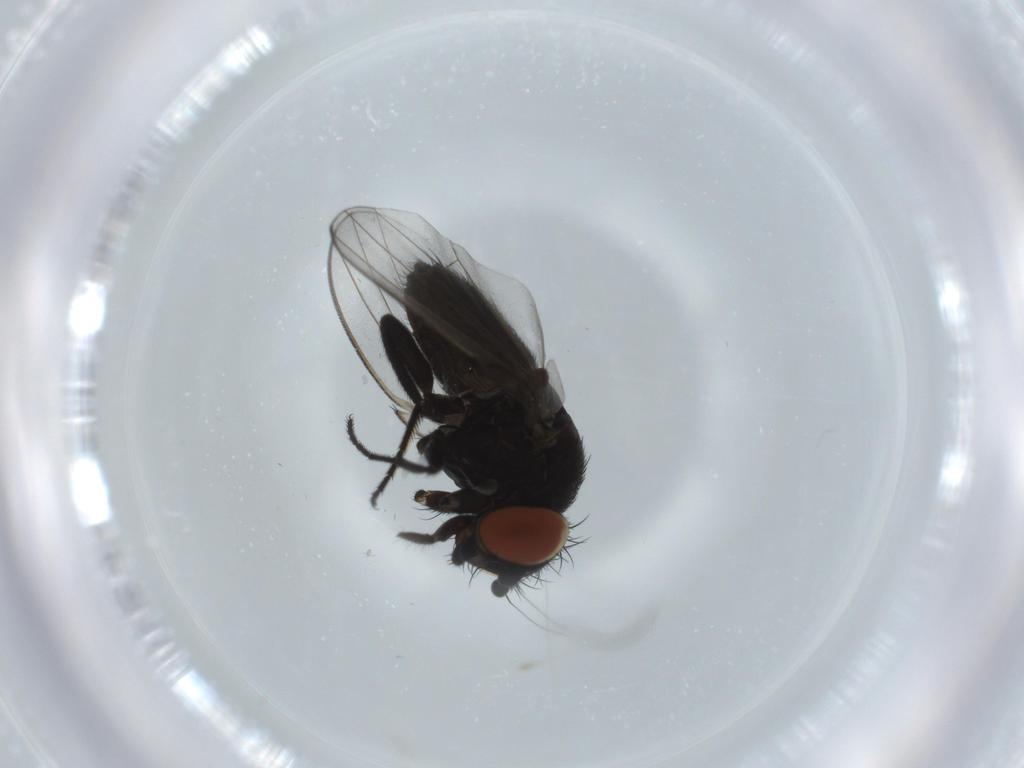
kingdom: Animalia
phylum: Arthropoda
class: Insecta
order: Diptera
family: Milichiidae
